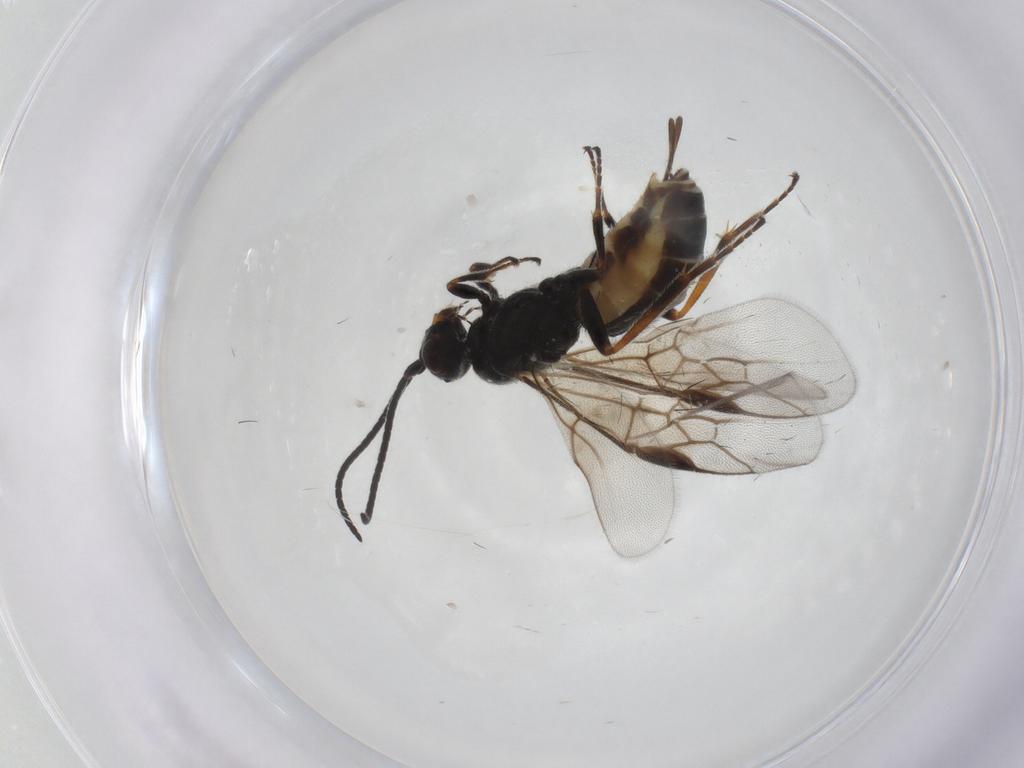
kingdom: Animalia
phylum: Arthropoda
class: Insecta
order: Hymenoptera
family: Braconidae
